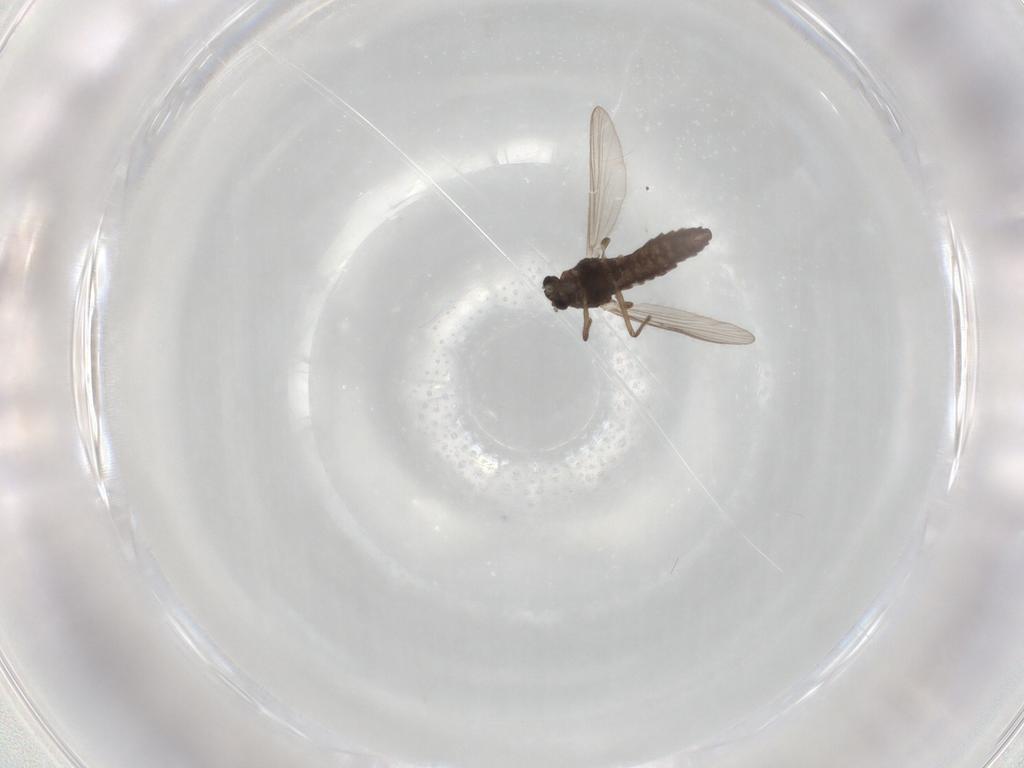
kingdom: Animalia
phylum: Arthropoda
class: Insecta
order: Diptera
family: Chironomidae
